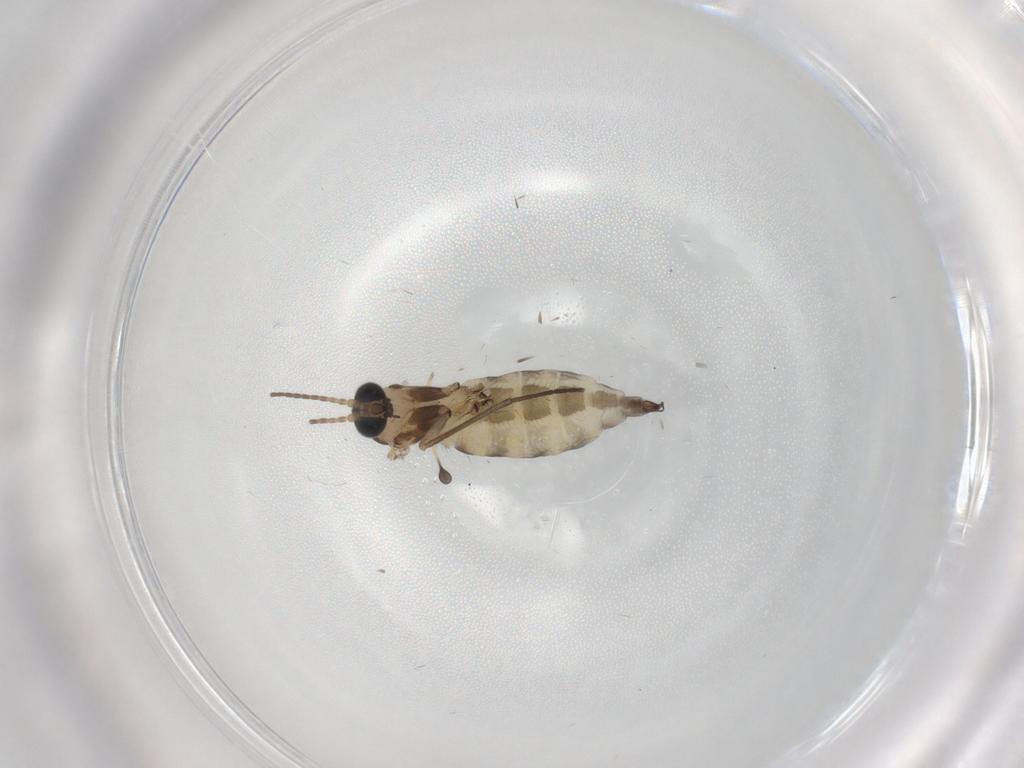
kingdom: Animalia
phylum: Arthropoda
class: Insecta
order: Diptera
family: Sciaridae
